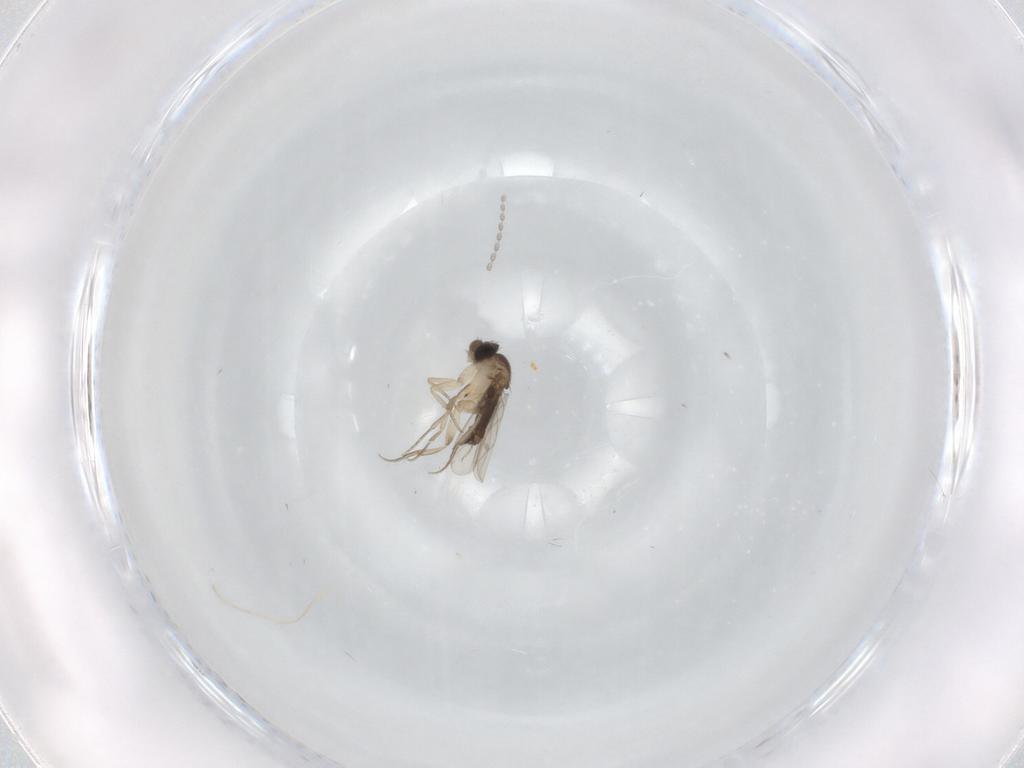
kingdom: Animalia
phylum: Arthropoda
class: Insecta
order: Diptera
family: Phoridae
